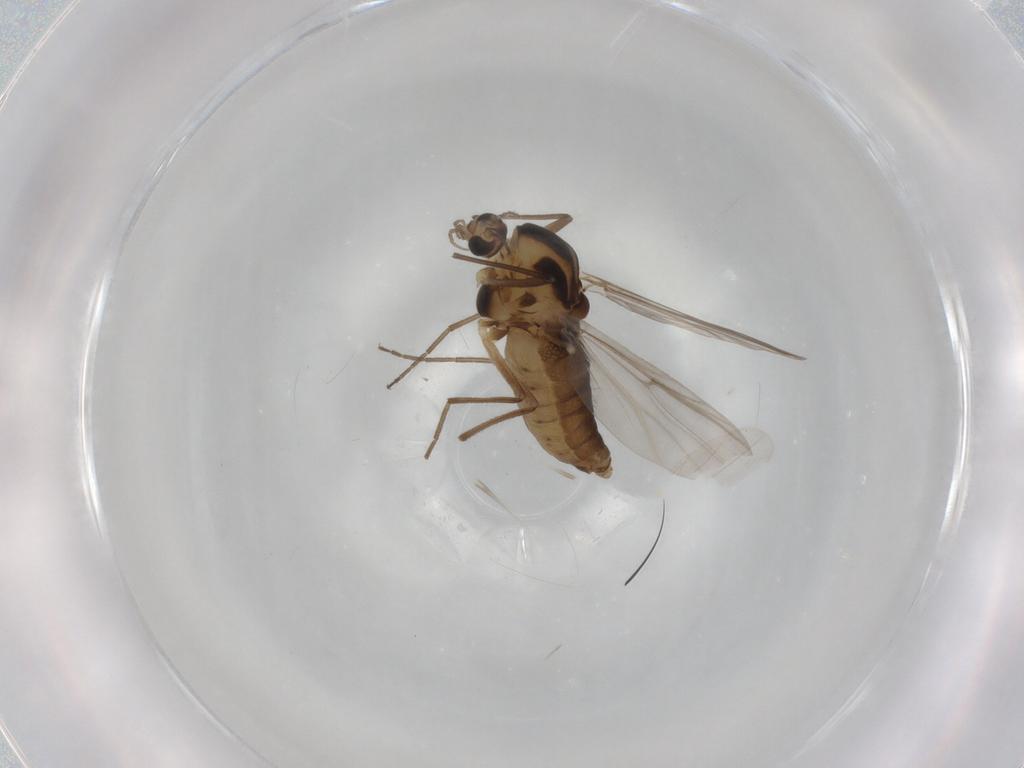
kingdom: Animalia
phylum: Arthropoda
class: Insecta
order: Diptera
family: Chironomidae
